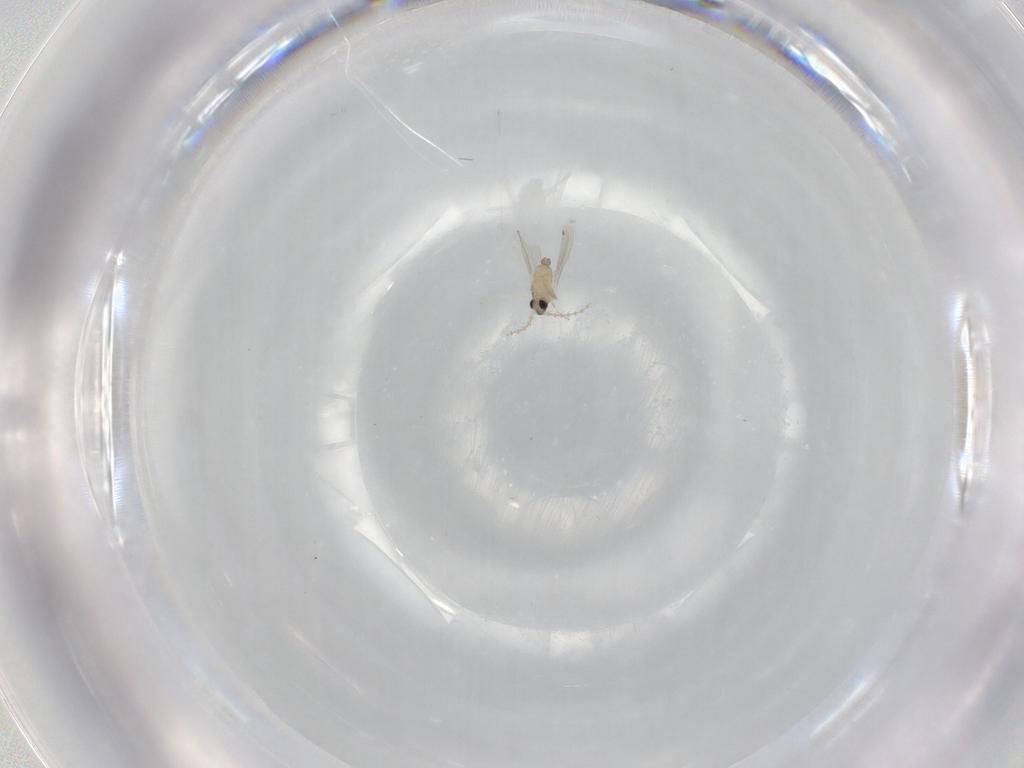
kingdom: Animalia
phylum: Arthropoda
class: Insecta
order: Diptera
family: Cecidomyiidae
